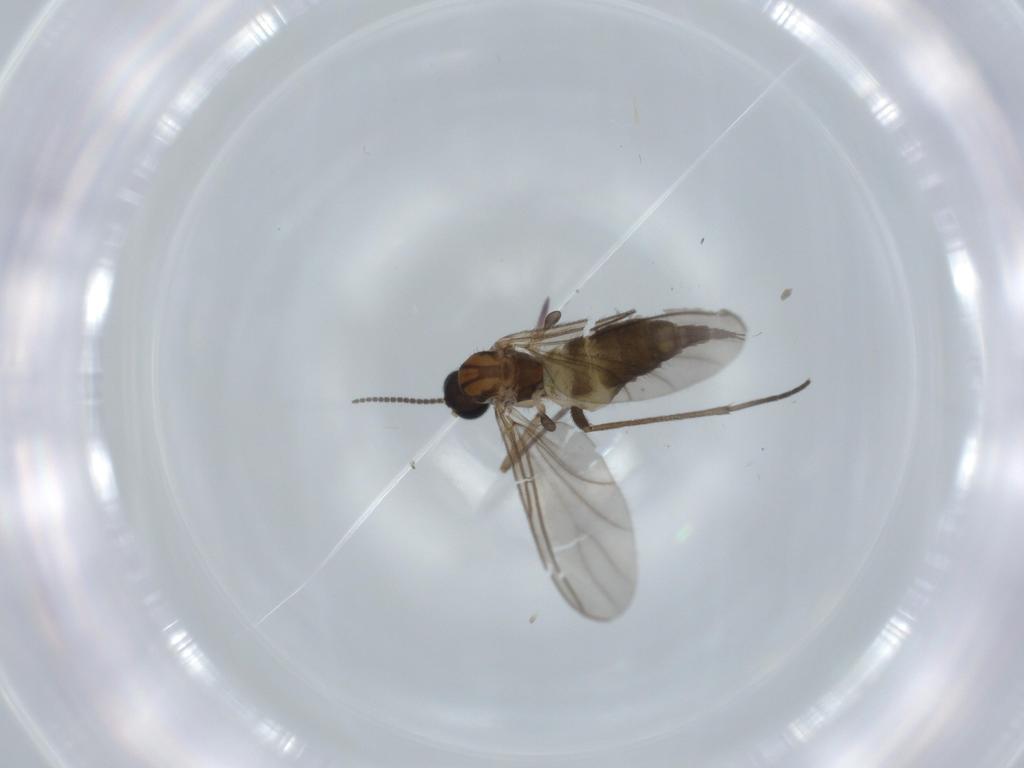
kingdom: Animalia
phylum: Arthropoda
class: Insecta
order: Diptera
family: Sciaridae
